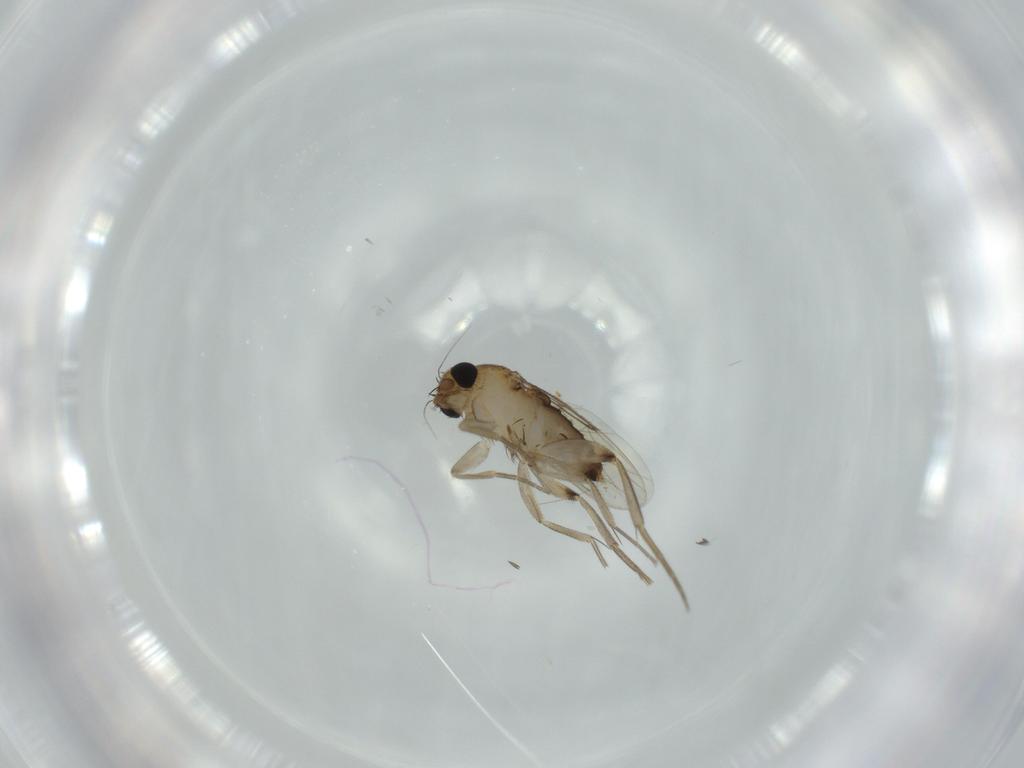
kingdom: Animalia
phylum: Arthropoda
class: Insecta
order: Diptera
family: Phoridae
